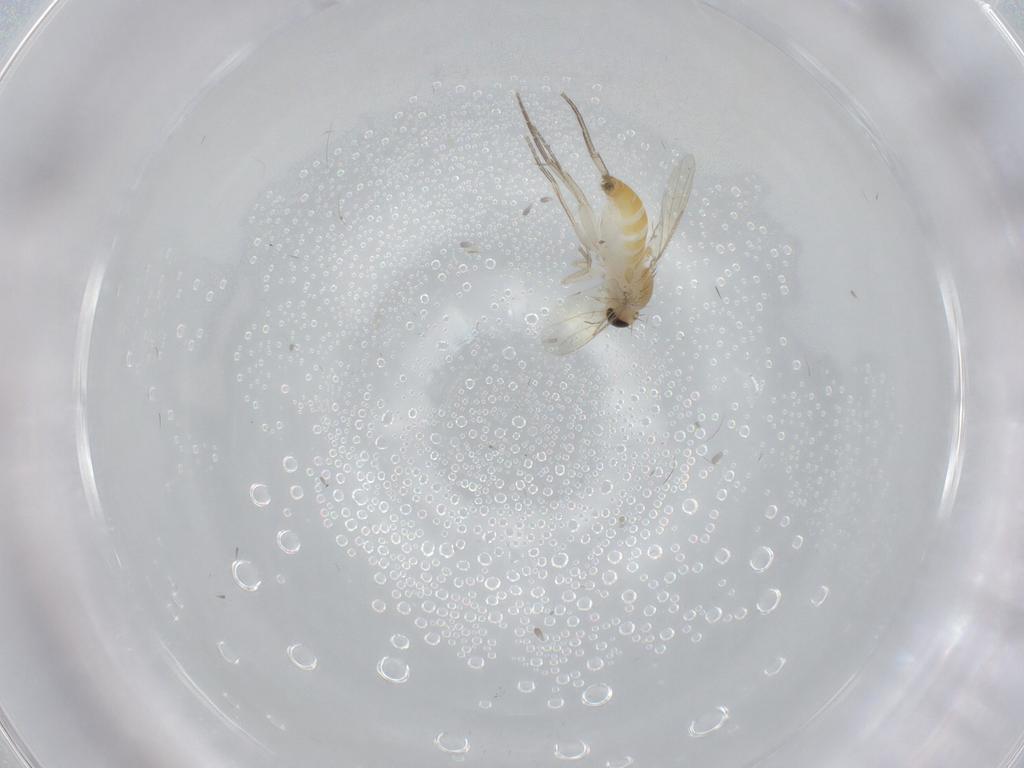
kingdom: Animalia
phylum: Arthropoda
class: Insecta
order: Diptera
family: Phoridae
